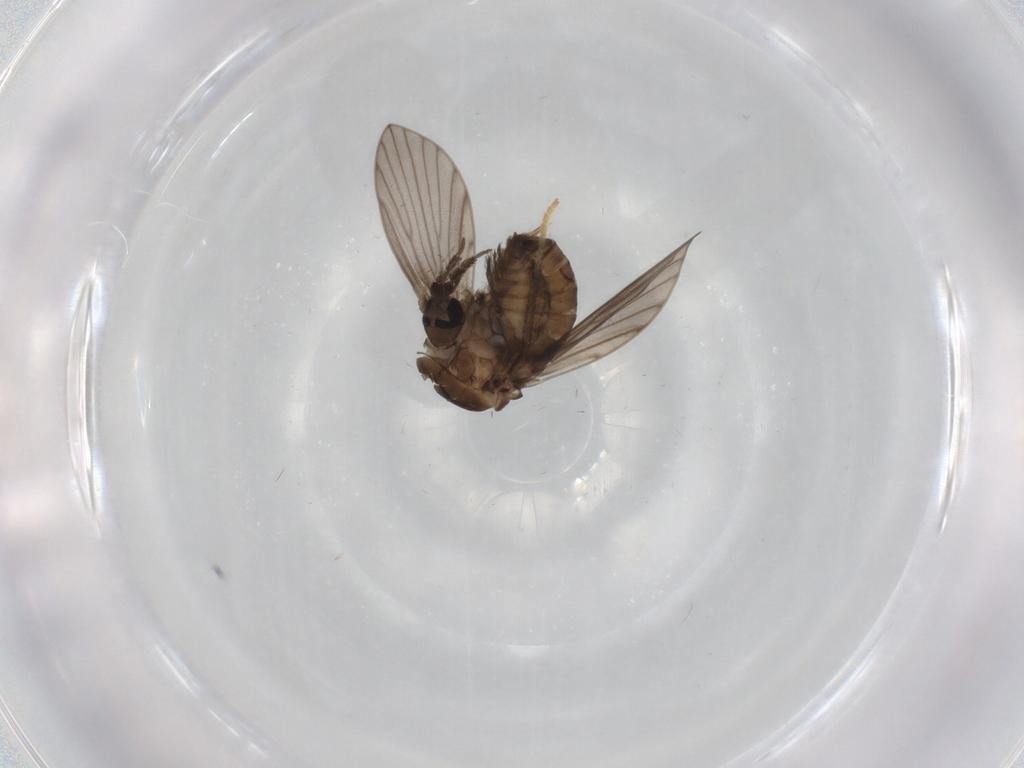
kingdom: Animalia
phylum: Arthropoda
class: Insecta
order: Diptera
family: Psychodidae
